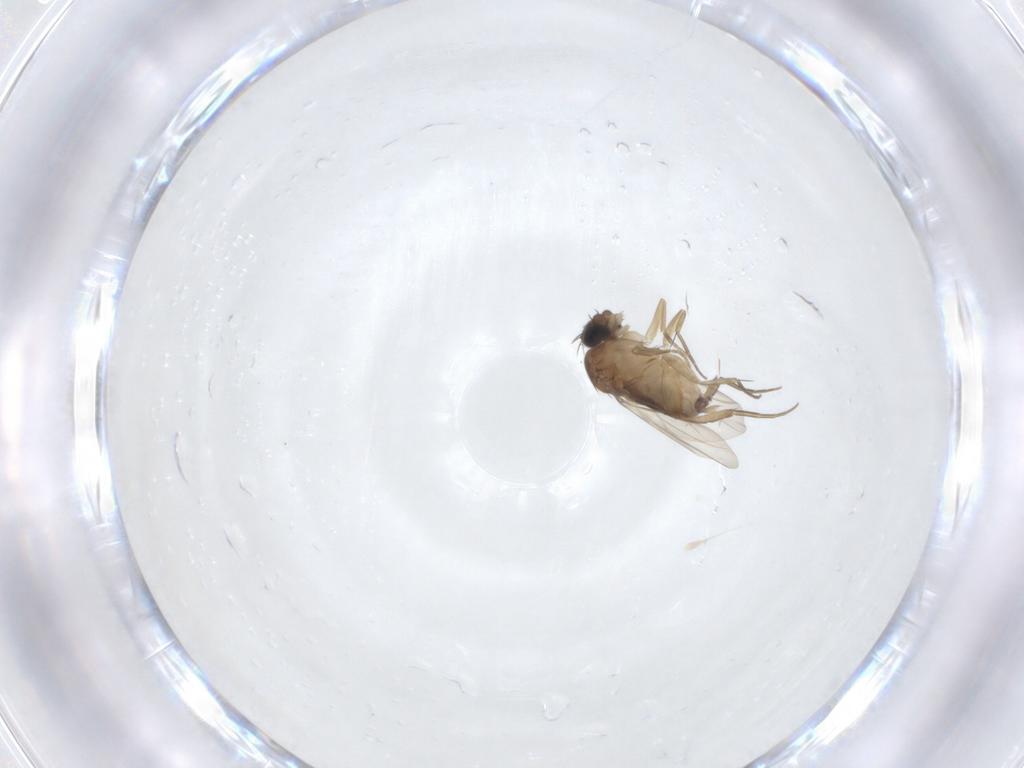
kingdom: Animalia
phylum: Arthropoda
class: Insecta
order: Diptera
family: Phoridae
